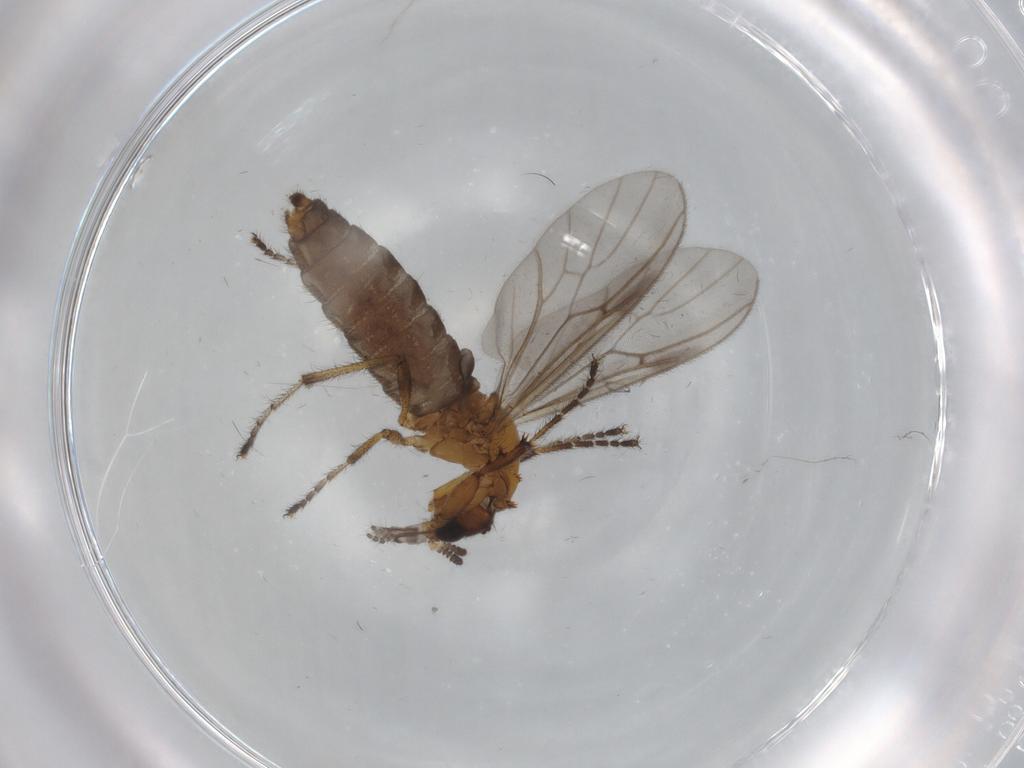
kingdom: Animalia
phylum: Arthropoda
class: Insecta
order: Diptera
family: Bibionidae
